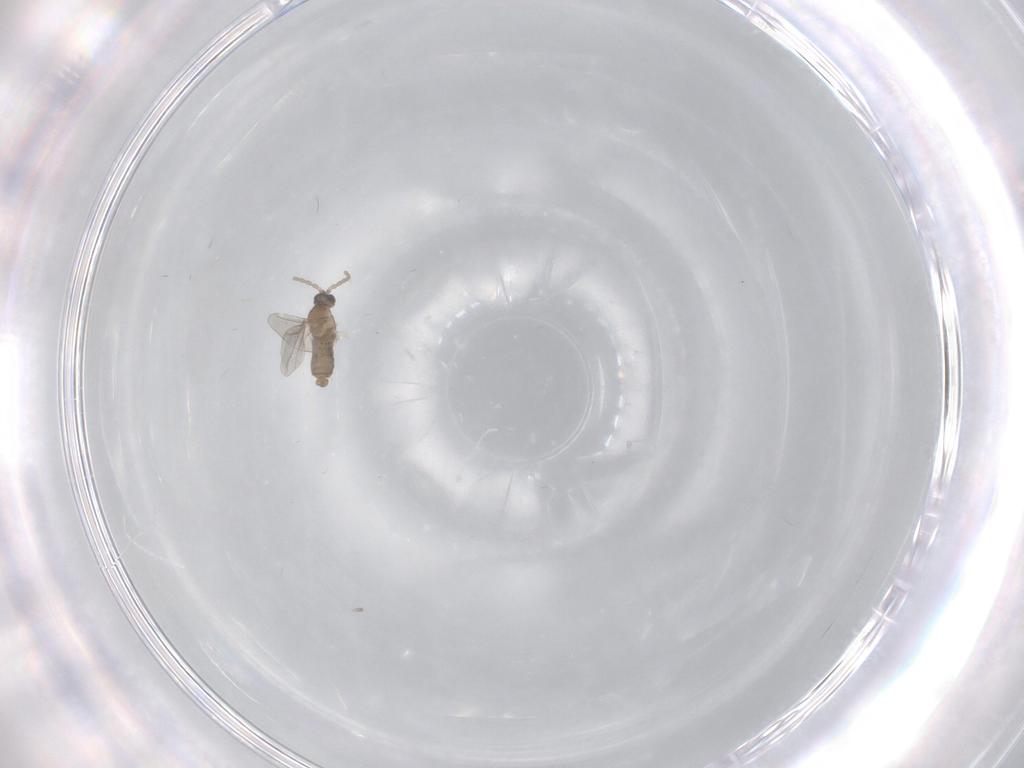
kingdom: Animalia
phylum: Arthropoda
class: Insecta
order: Diptera
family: Cecidomyiidae
